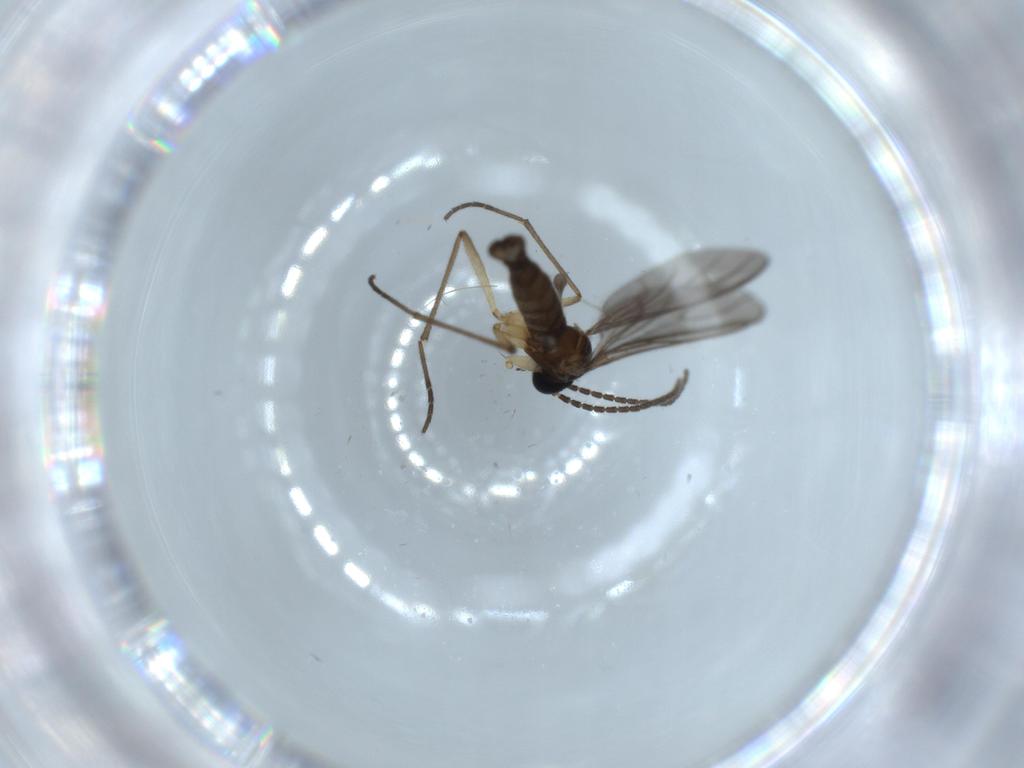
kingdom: Animalia
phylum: Arthropoda
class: Insecta
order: Diptera
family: Sciaridae
